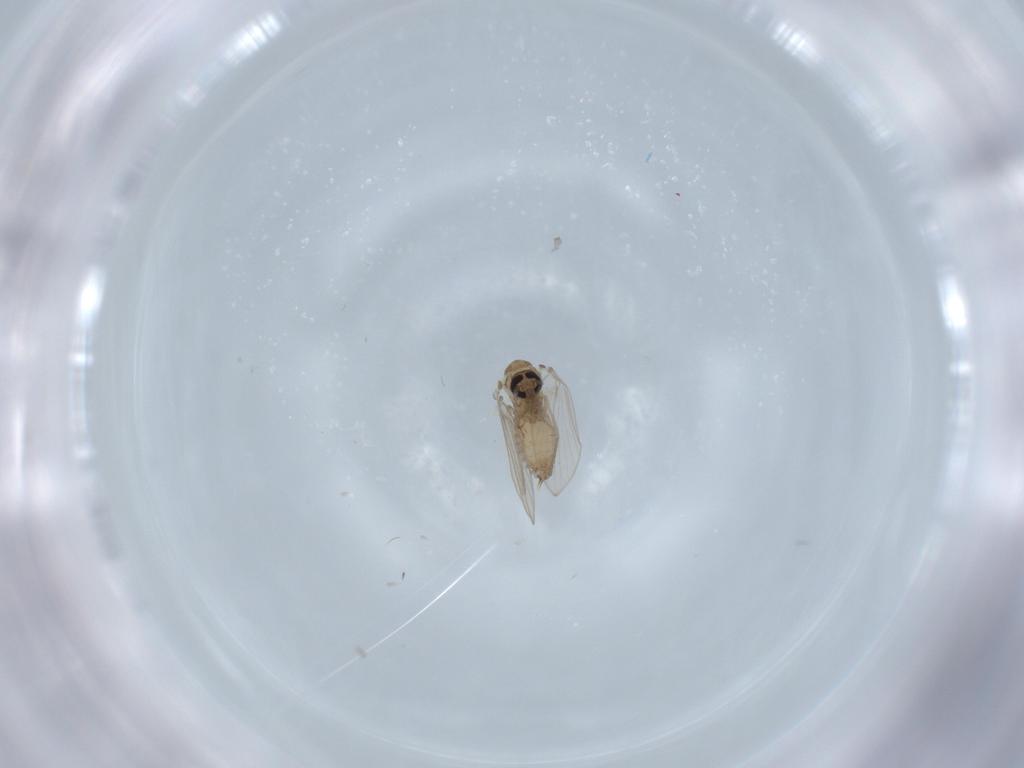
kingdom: Animalia
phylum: Arthropoda
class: Insecta
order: Diptera
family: Psychodidae
